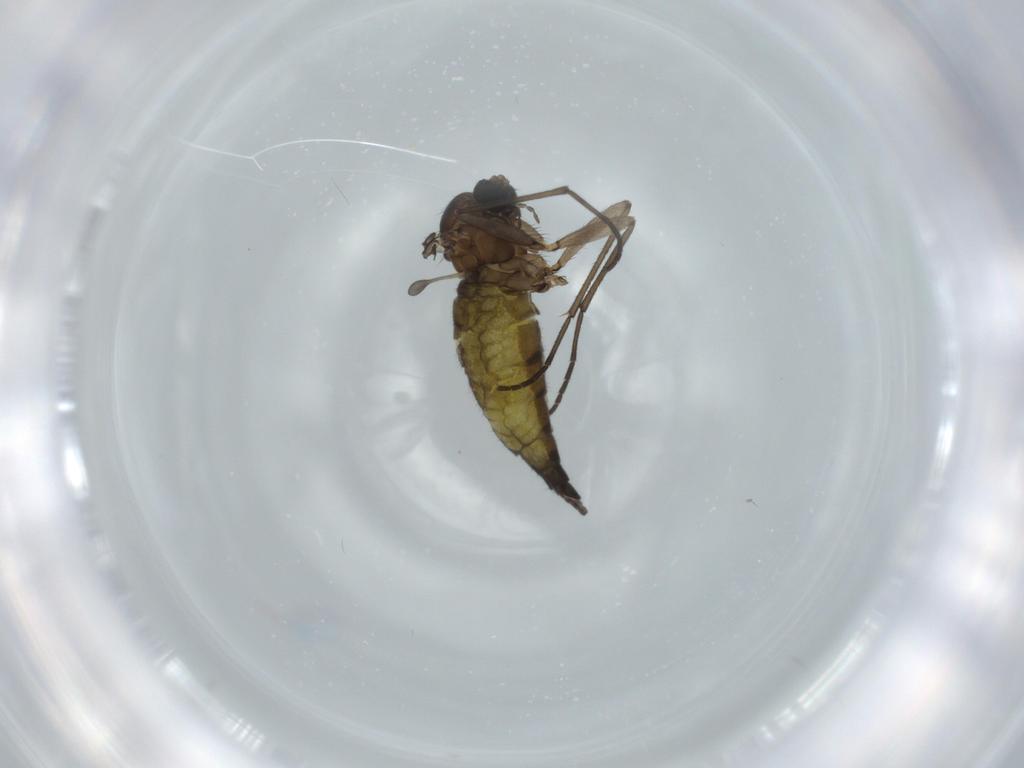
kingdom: Animalia
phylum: Arthropoda
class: Insecta
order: Diptera
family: Sciaridae
